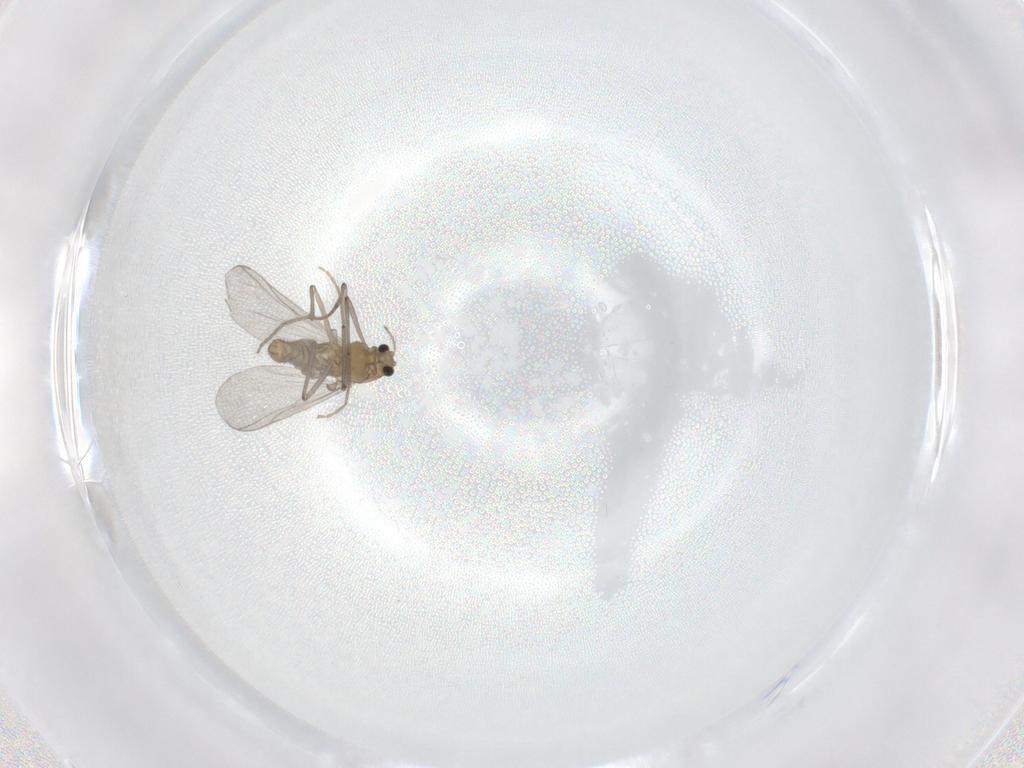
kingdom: Animalia
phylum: Arthropoda
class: Insecta
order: Diptera
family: Chironomidae
